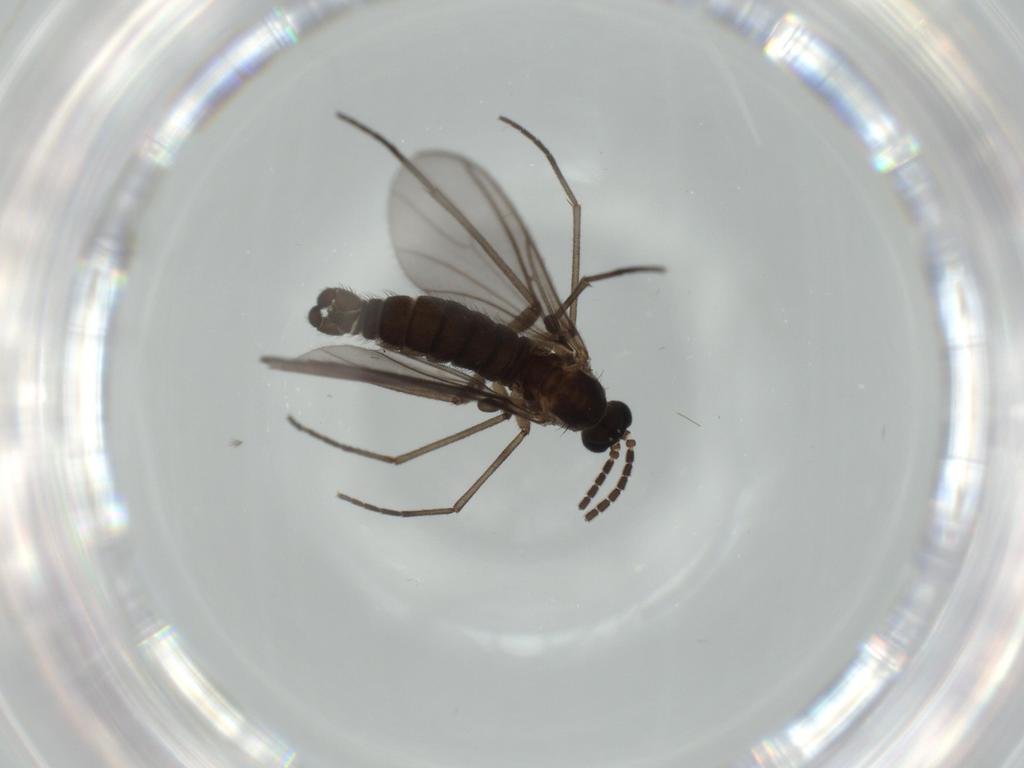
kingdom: Animalia
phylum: Arthropoda
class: Insecta
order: Diptera
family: Sciaridae
